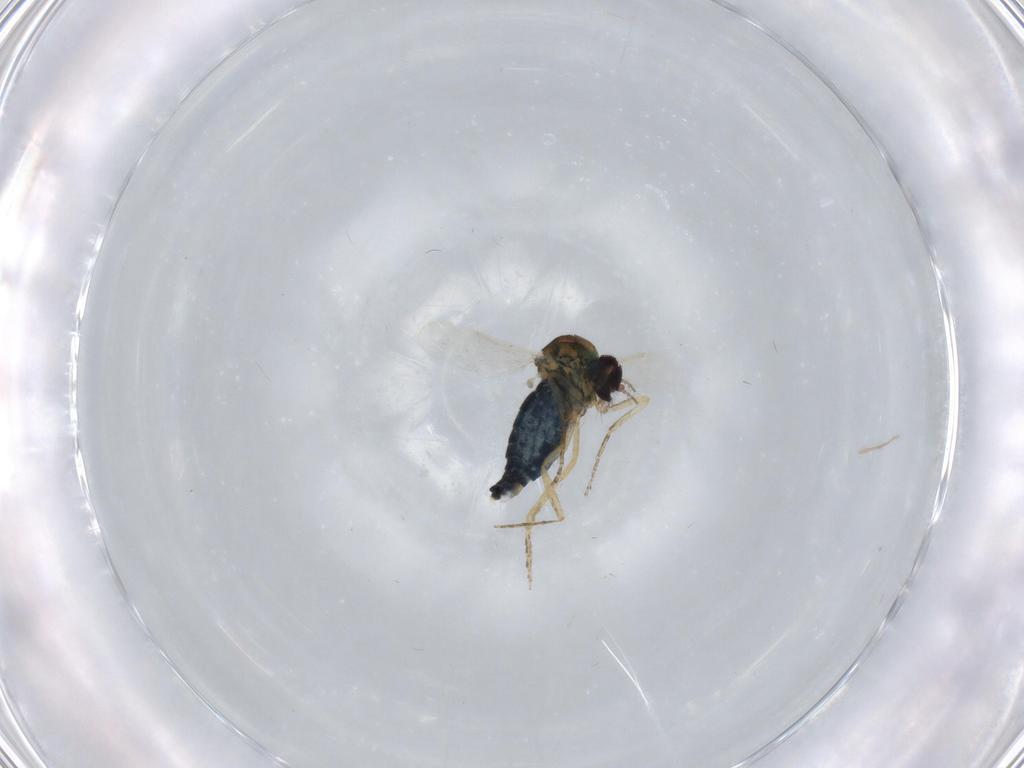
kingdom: Animalia
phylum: Arthropoda
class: Insecta
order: Diptera
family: Ceratopogonidae
